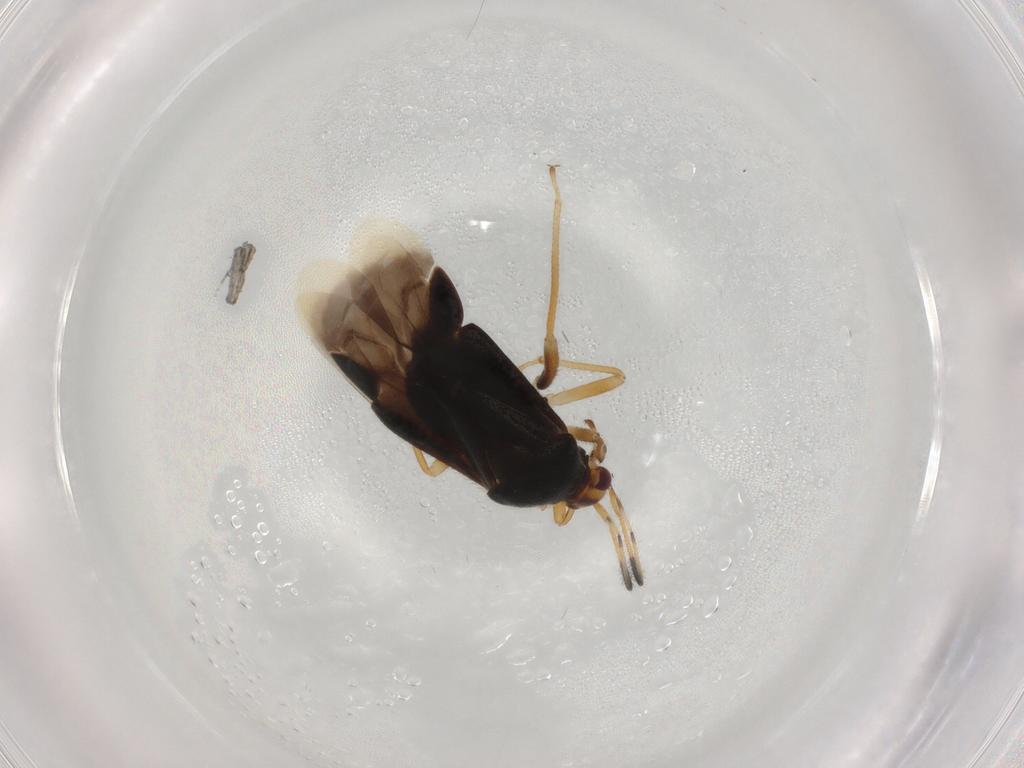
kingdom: Animalia
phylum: Arthropoda
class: Insecta
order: Hemiptera
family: Miridae
